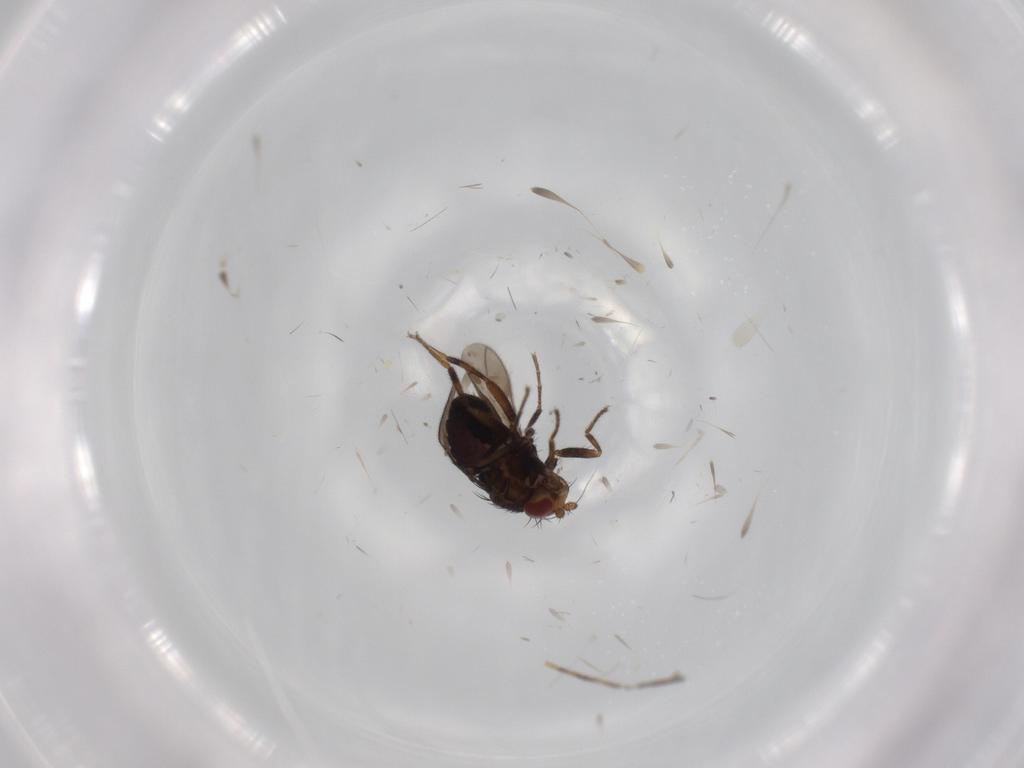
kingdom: Animalia
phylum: Arthropoda
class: Insecta
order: Diptera
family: Sphaeroceridae
